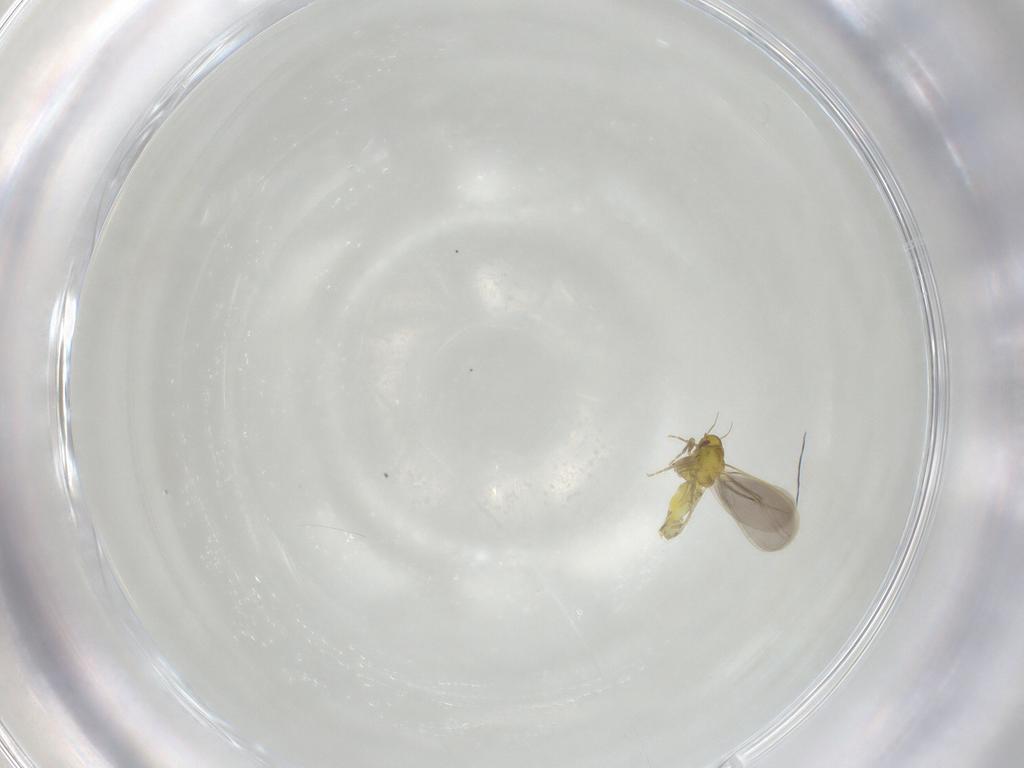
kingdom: Animalia
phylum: Arthropoda
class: Insecta
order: Hemiptera
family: Aleyrodidae
